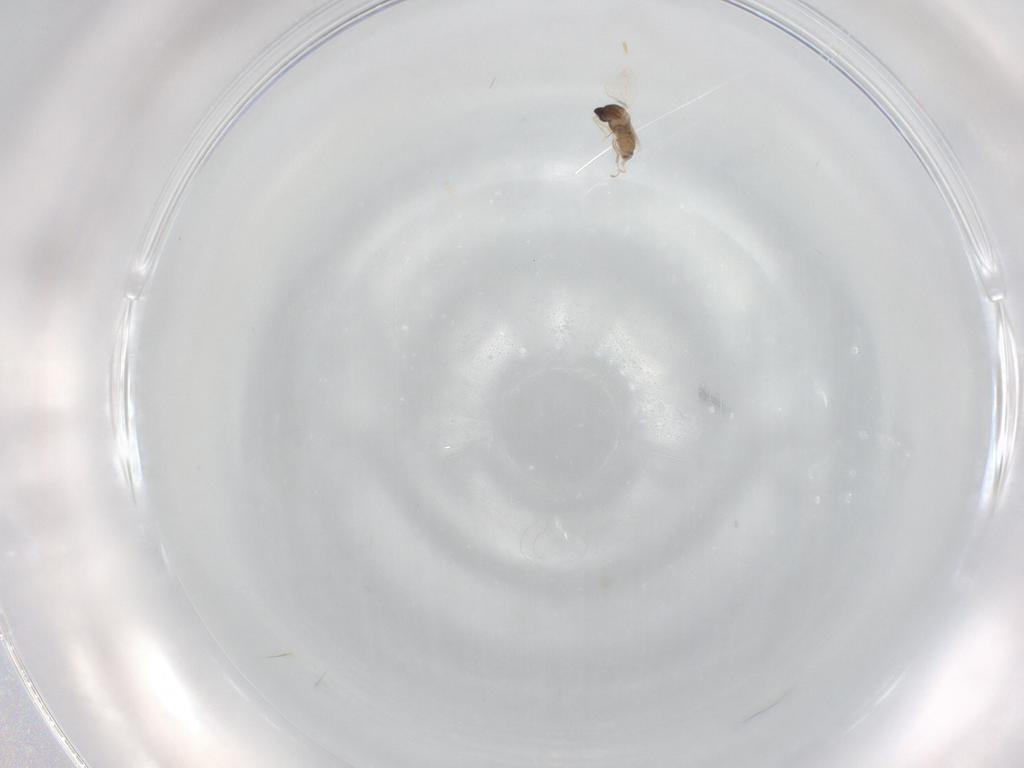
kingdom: Animalia
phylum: Arthropoda
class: Insecta
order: Diptera
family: Cecidomyiidae
